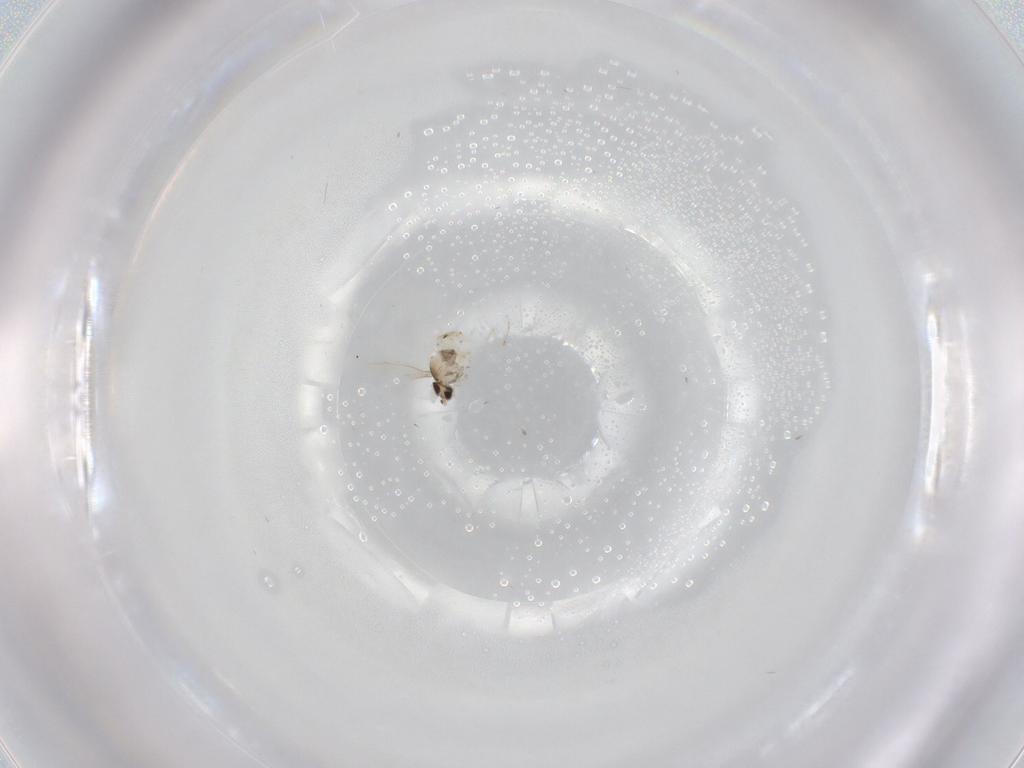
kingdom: Animalia
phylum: Arthropoda
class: Insecta
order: Diptera
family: Cecidomyiidae
